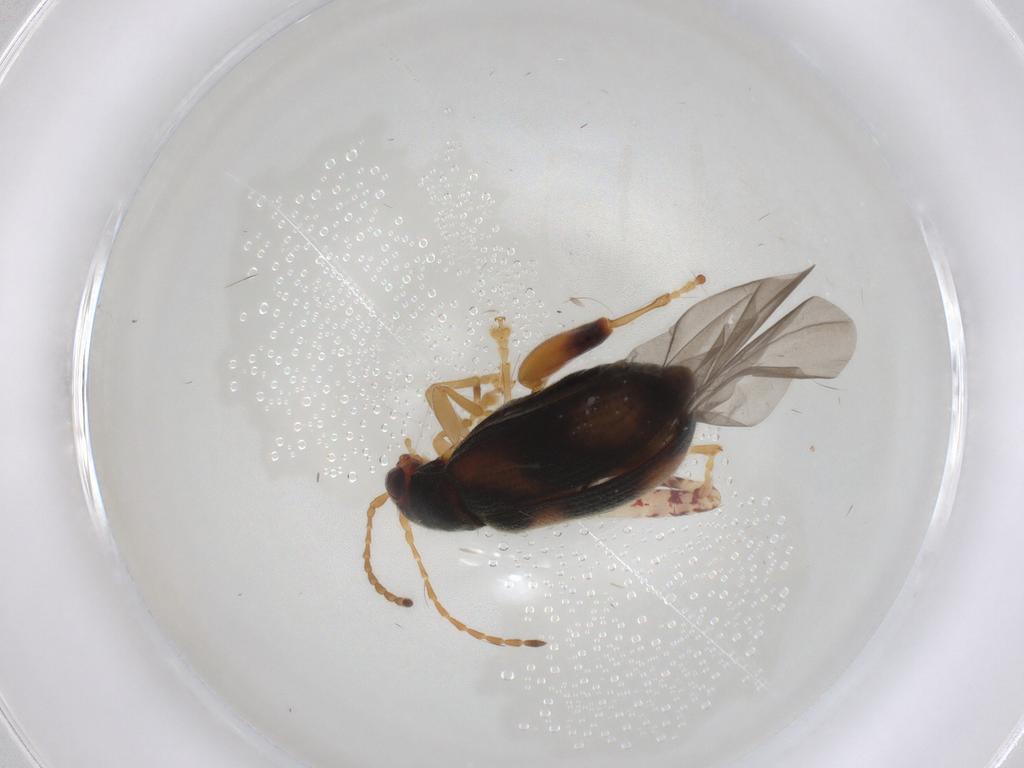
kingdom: Animalia
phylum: Arthropoda
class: Insecta
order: Coleoptera
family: Chrysomelidae
